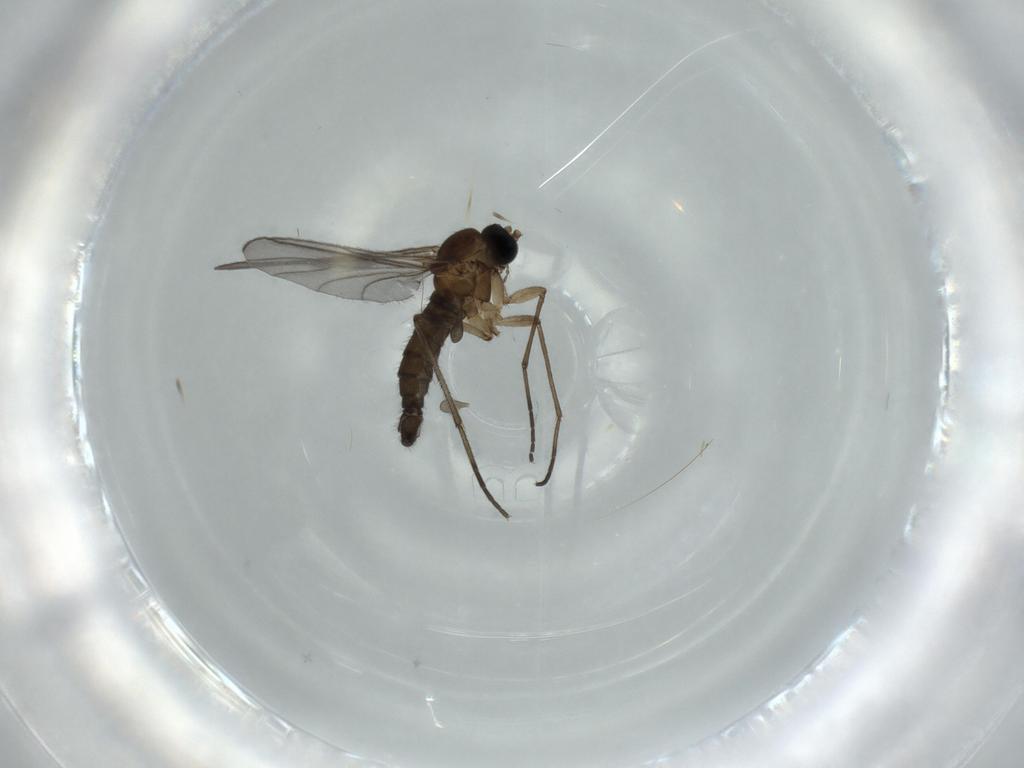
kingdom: Animalia
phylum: Arthropoda
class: Insecta
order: Diptera
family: Sciaridae
